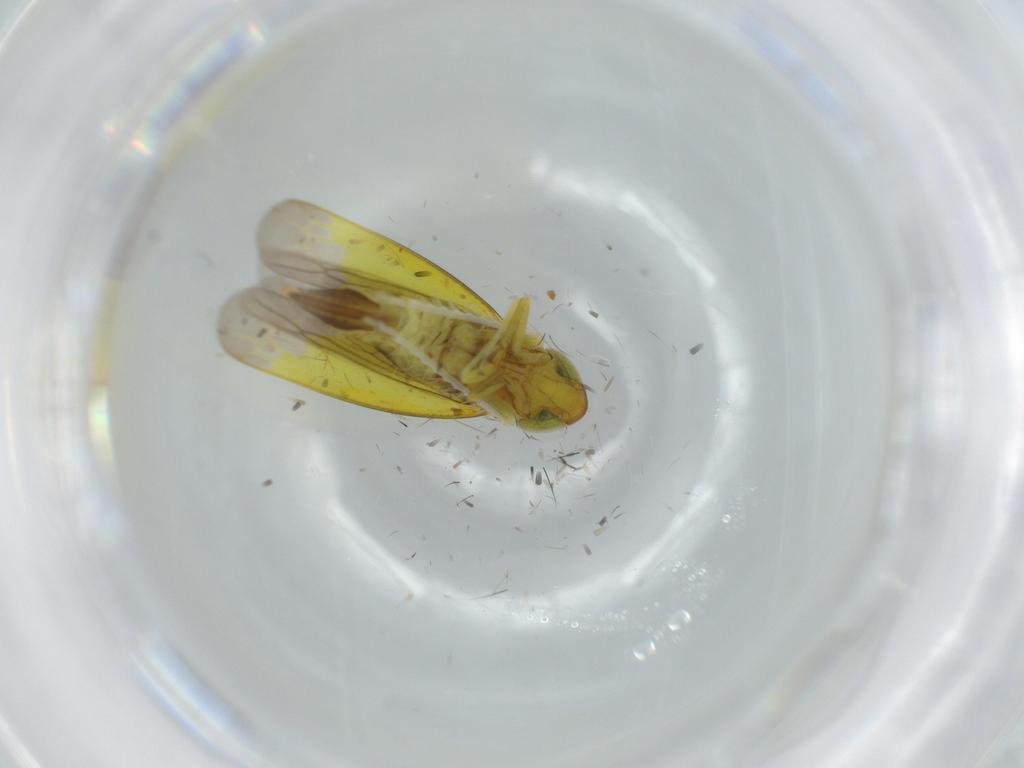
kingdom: Animalia
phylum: Arthropoda
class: Insecta
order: Hemiptera
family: Cicadellidae
